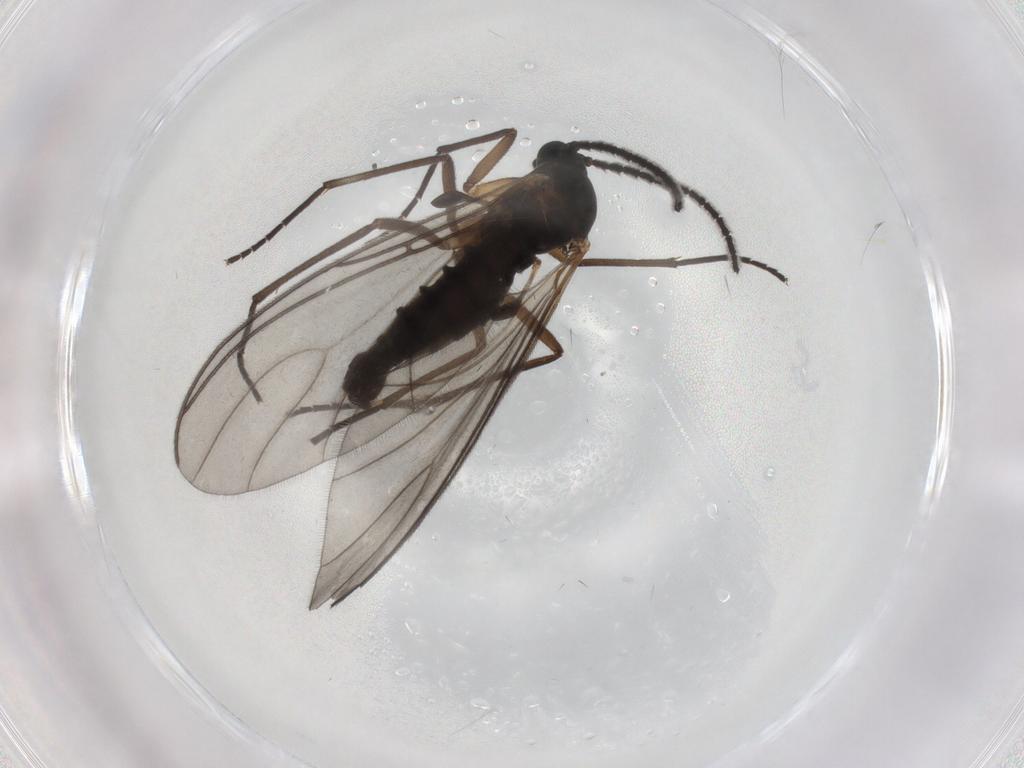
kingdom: Animalia
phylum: Arthropoda
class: Insecta
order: Diptera
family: Sciaridae
